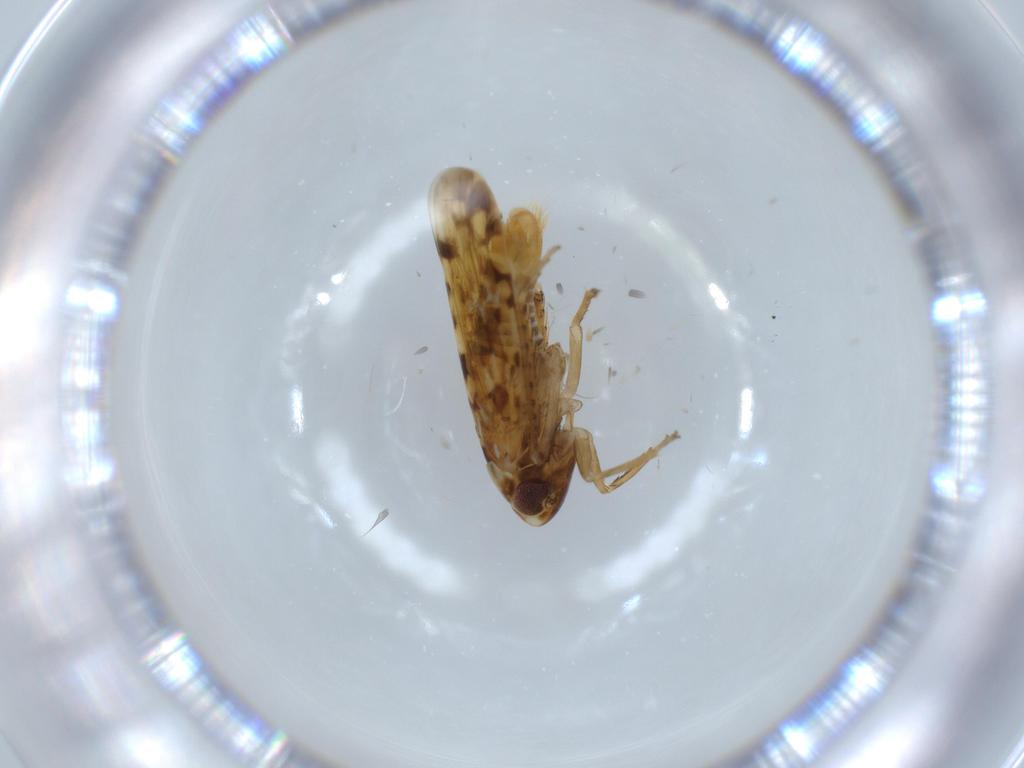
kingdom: Animalia
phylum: Arthropoda
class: Insecta
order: Hemiptera
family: Cicadellidae
